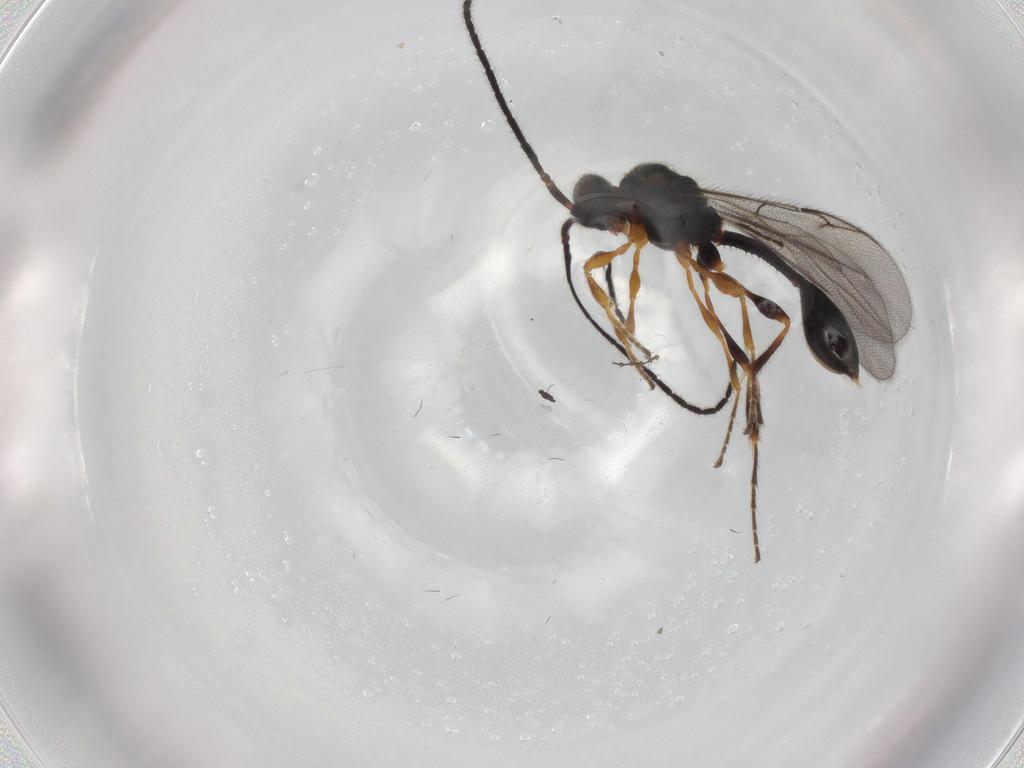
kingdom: Animalia
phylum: Arthropoda
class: Insecta
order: Hymenoptera
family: Diapriidae
